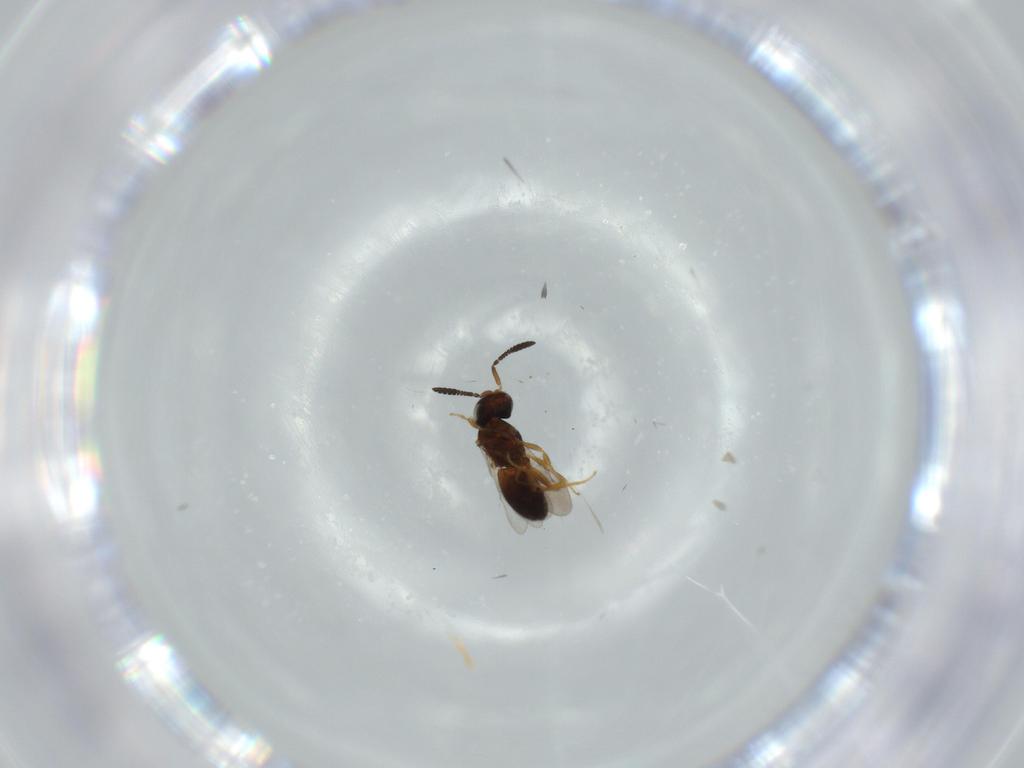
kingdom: Animalia
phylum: Arthropoda
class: Insecta
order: Hymenoptera
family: Scelionidae
